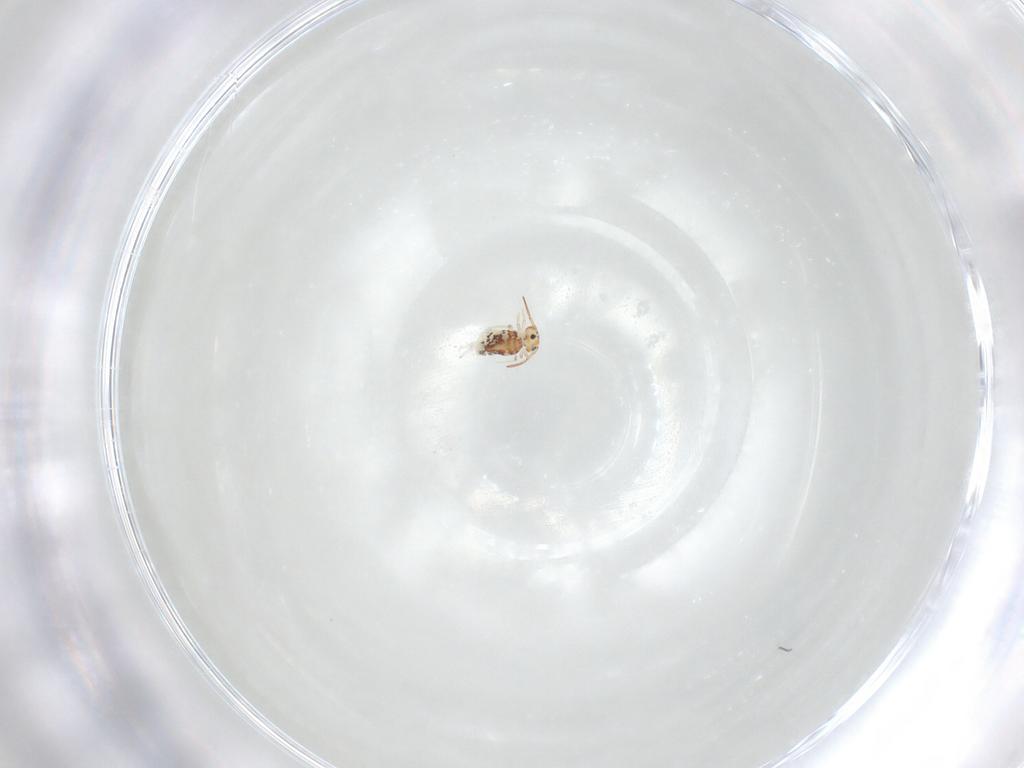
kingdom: Animalia
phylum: Arthropoda
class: Collembola
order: Symphypleona
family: Bourletiellidae
